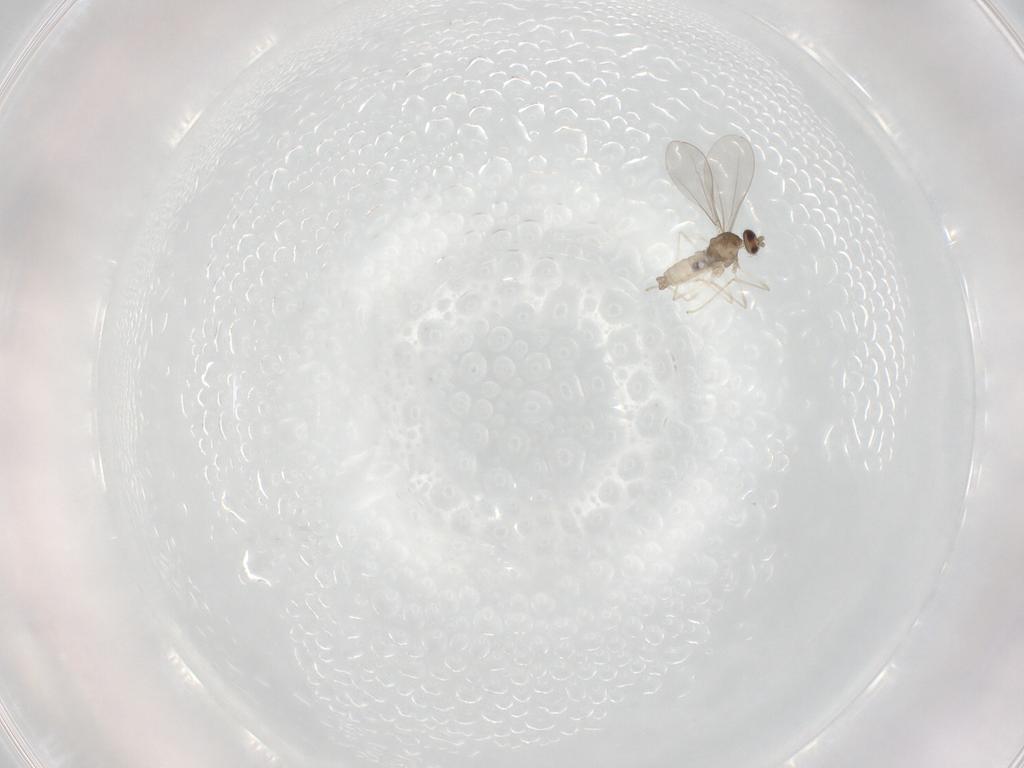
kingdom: Animalia
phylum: Arthropoda
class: Insecta
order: Diptera
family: Cecidomyiidae
